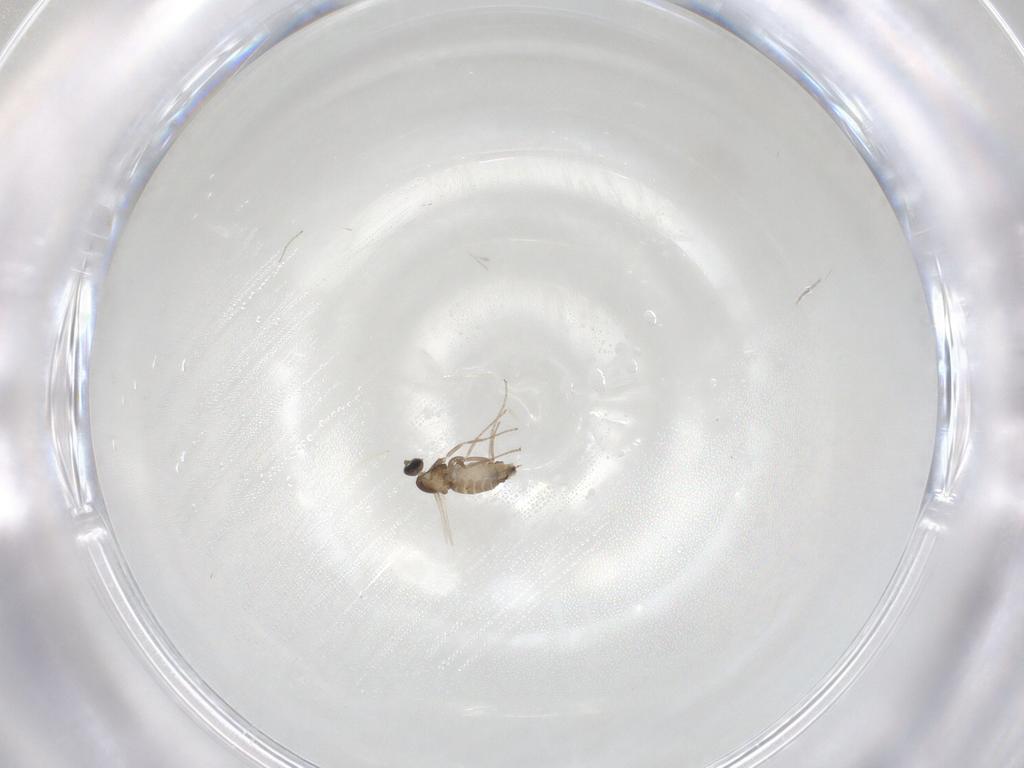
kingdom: Animalia
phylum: Arthropoda
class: Insecta
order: Diptera
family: Cecidomyiidae
